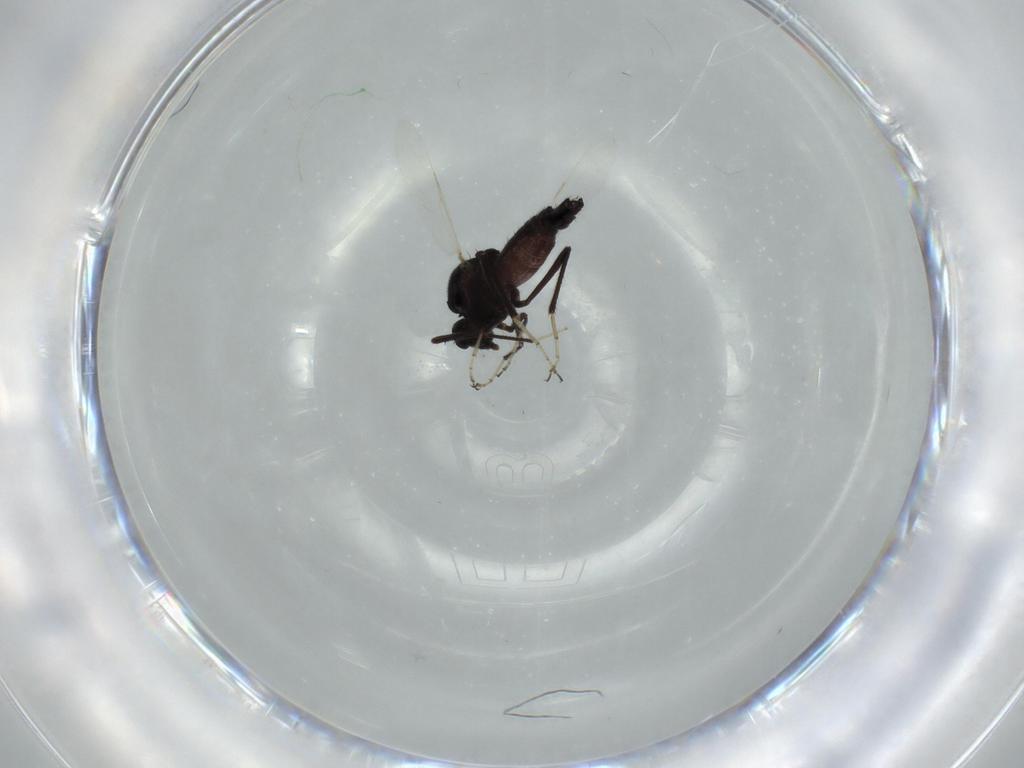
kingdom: Animalia
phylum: Arthropoda
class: Insecta
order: Diptera
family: Ceratopogonidae
